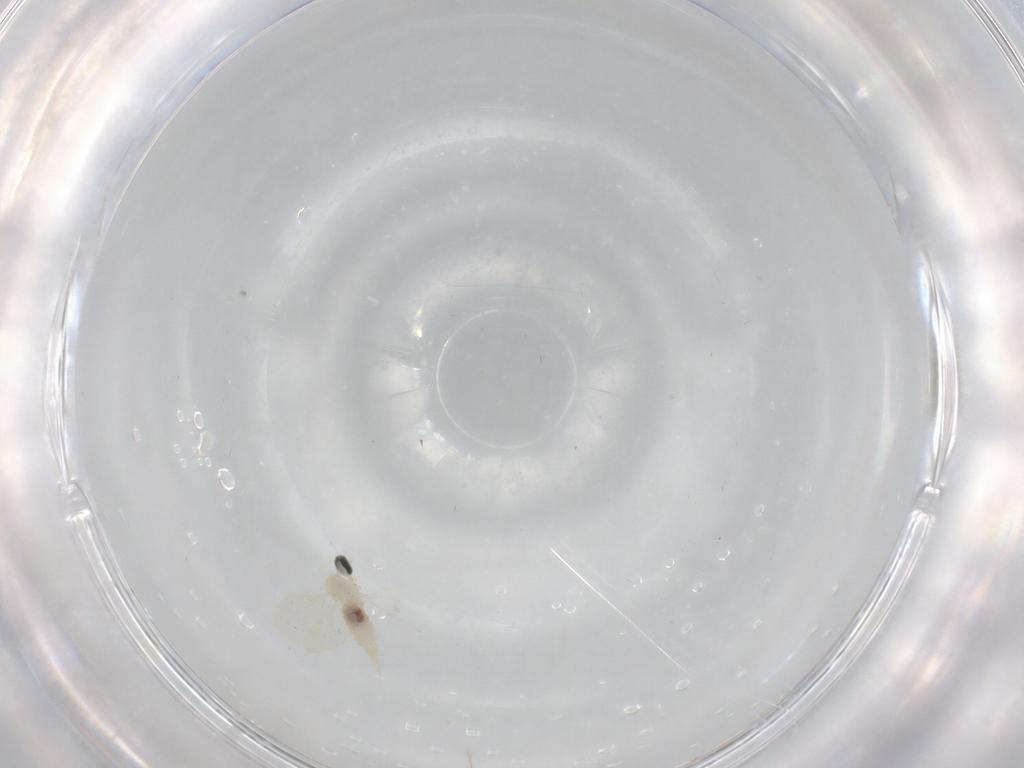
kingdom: Animalia
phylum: Arthropoda
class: Insecta
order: Diptera
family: Cecidomyiidae
